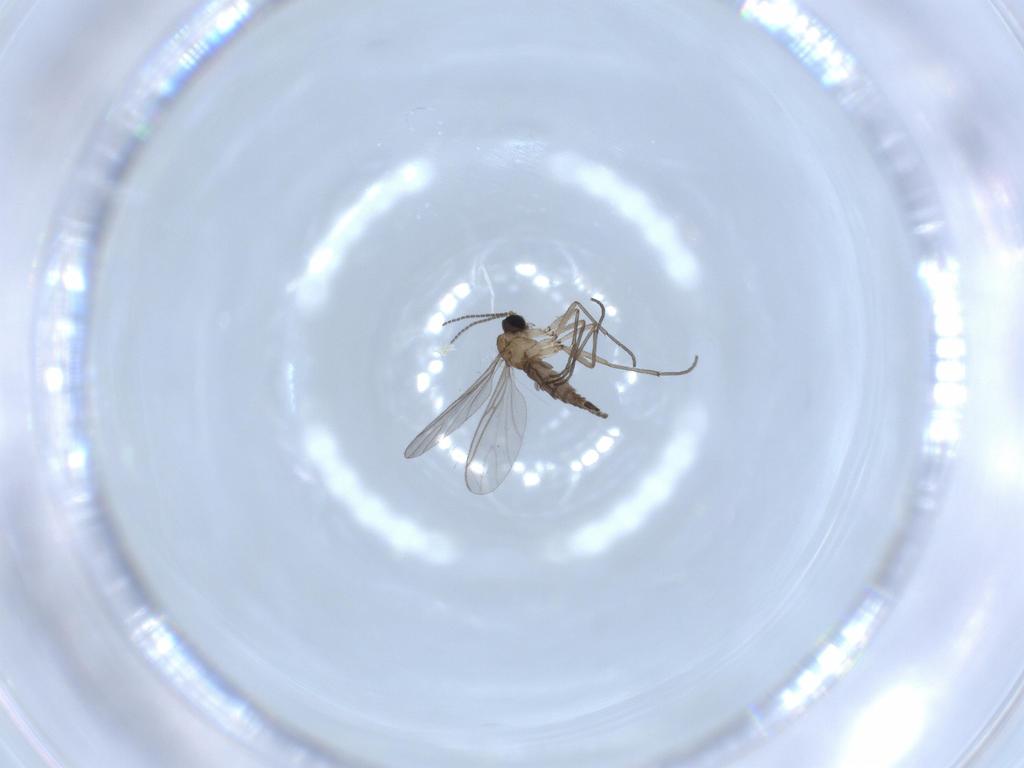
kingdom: Animalia
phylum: Arthropoda
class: Insecta
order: Diptera
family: Sciaridae
